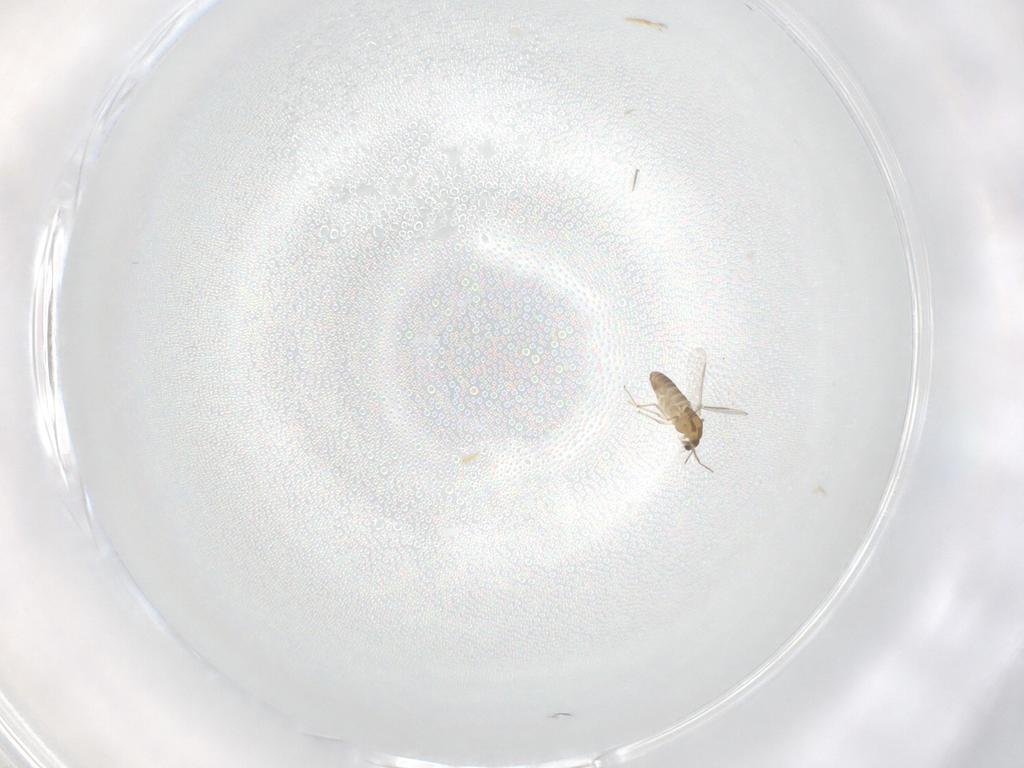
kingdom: Animalia
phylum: Arthropoda
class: Insecta
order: Diptera
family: Chironomidae
